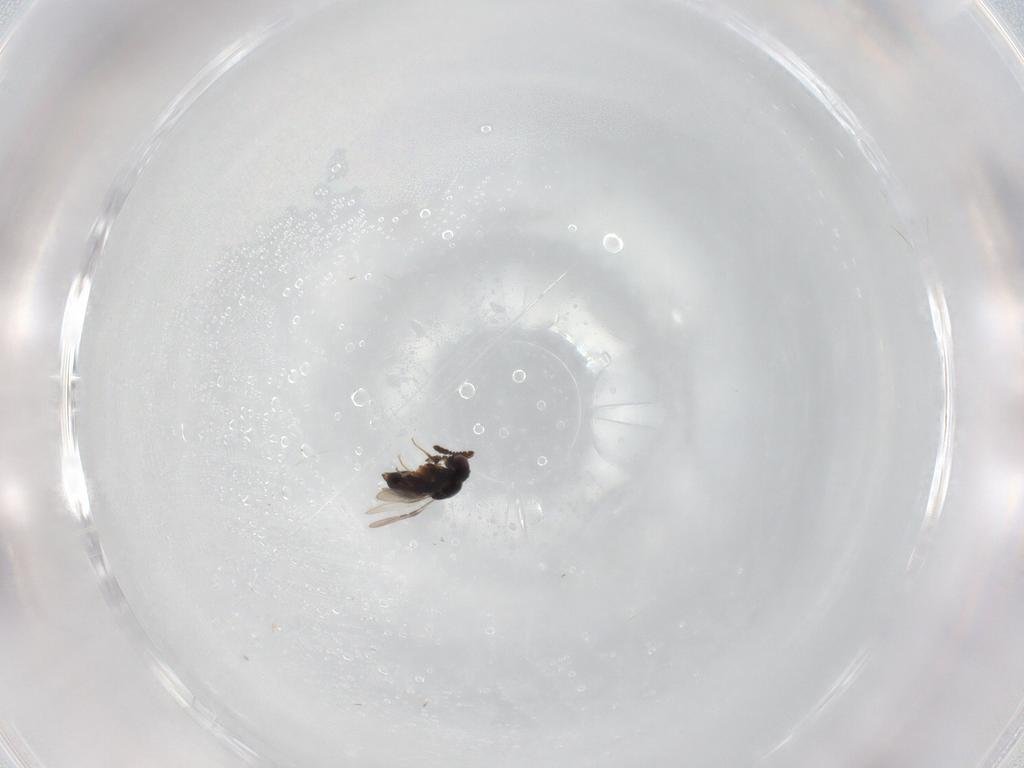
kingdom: Animalia
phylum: Arthropoda
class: Insecta
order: Hymenoptera
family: Ceraphronidae
